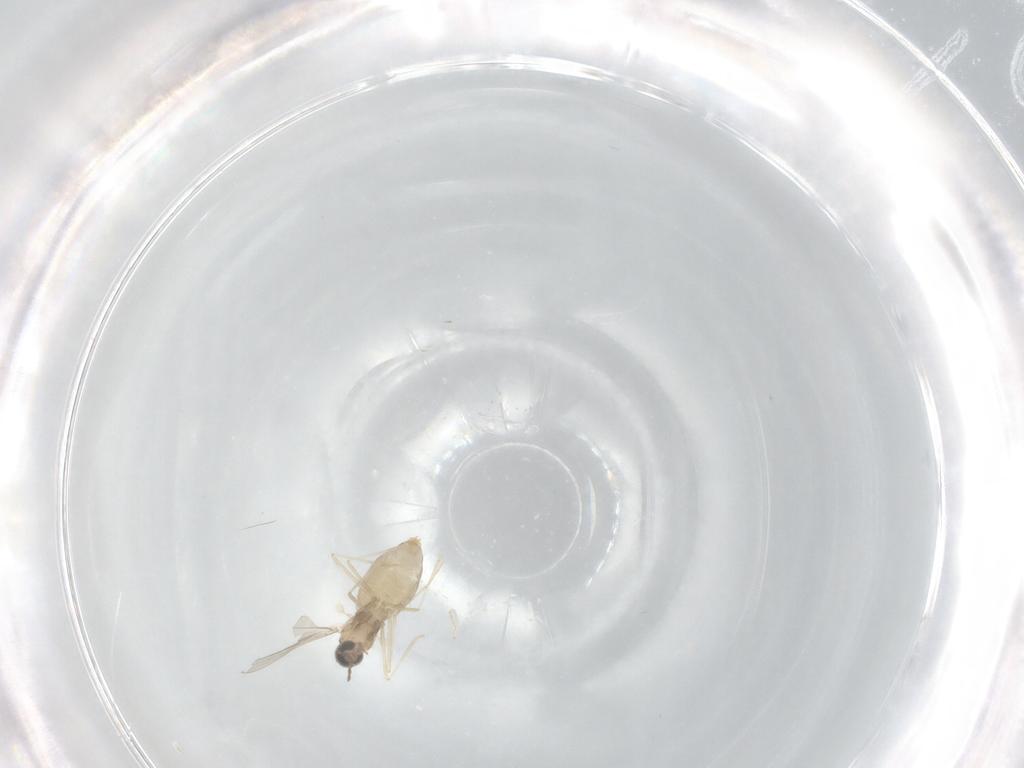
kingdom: Animalia
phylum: Arthropoda
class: Insecta
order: Diptera
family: Cecidomyiidae
